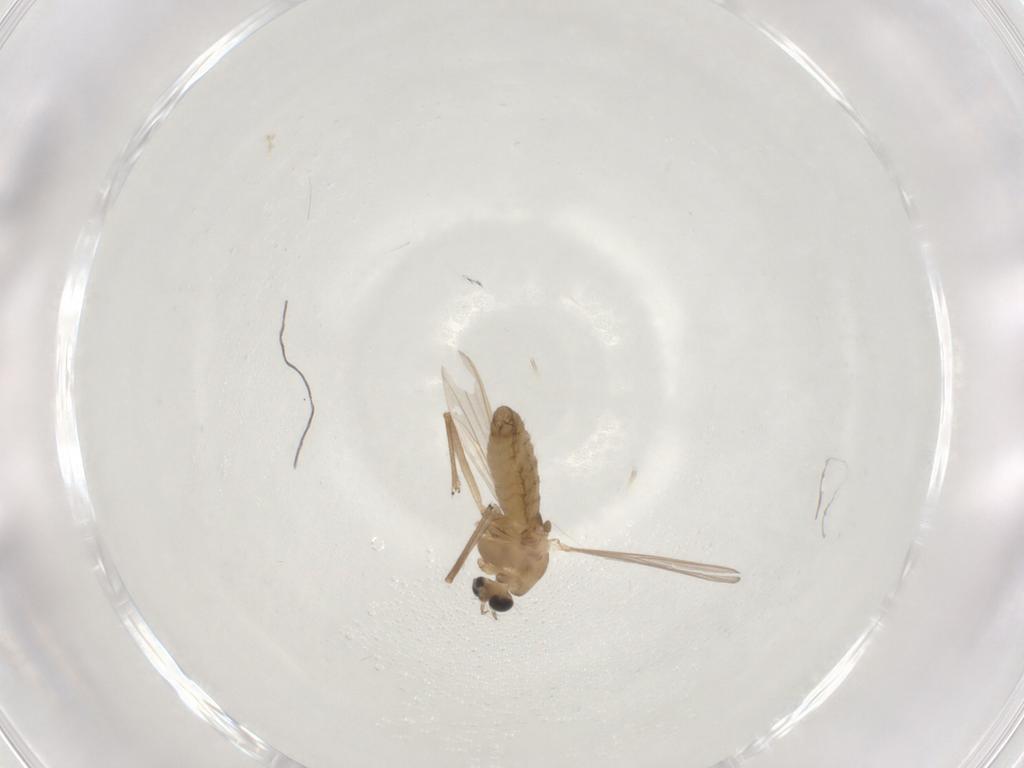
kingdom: Animalia
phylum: Arthropoda
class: Insecta
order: Diptera
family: Chironomidae
